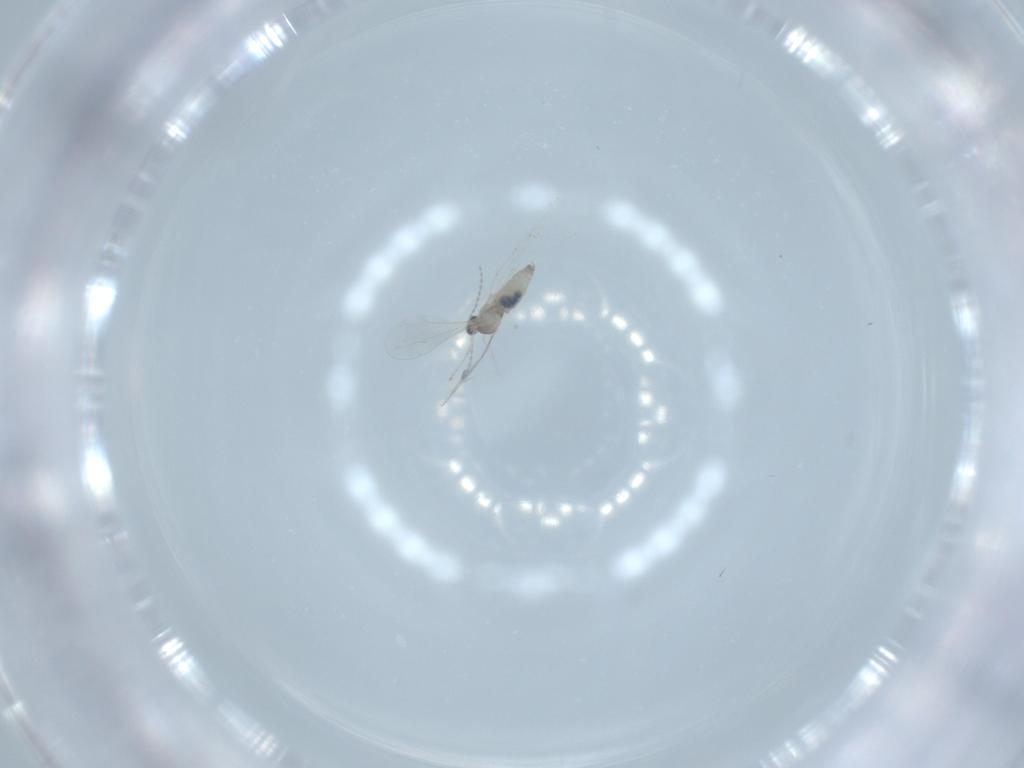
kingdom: Animalia
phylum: Arthropoda
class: Insecta
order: Diptera
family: Cecidomyiidae
